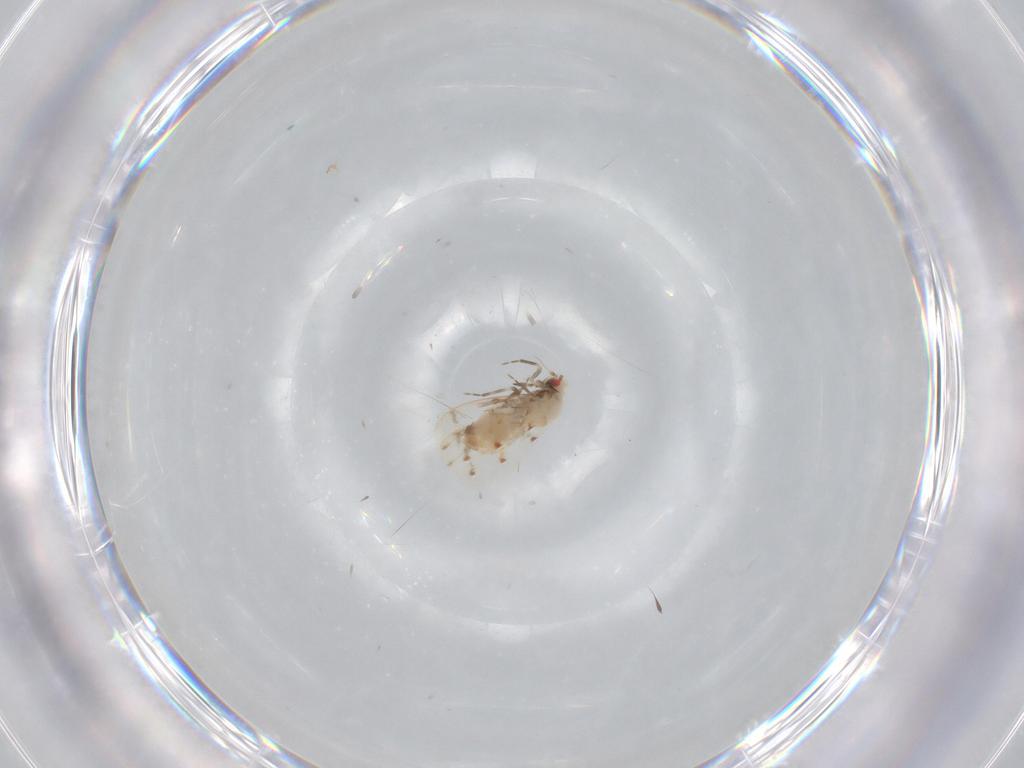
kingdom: Animalia
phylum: Arthropoda
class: Insecta
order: Hemiptera
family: Aleyrodidae
